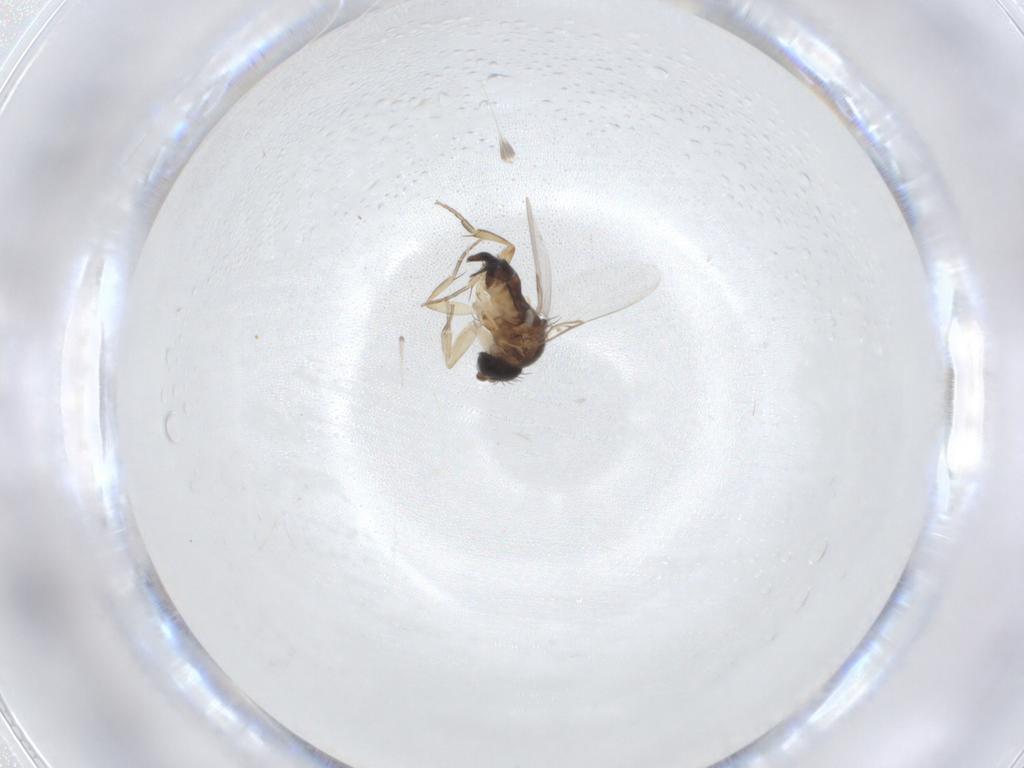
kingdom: Animalia
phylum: Arthropoda
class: Insecta
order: Diptera
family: Phoridae
